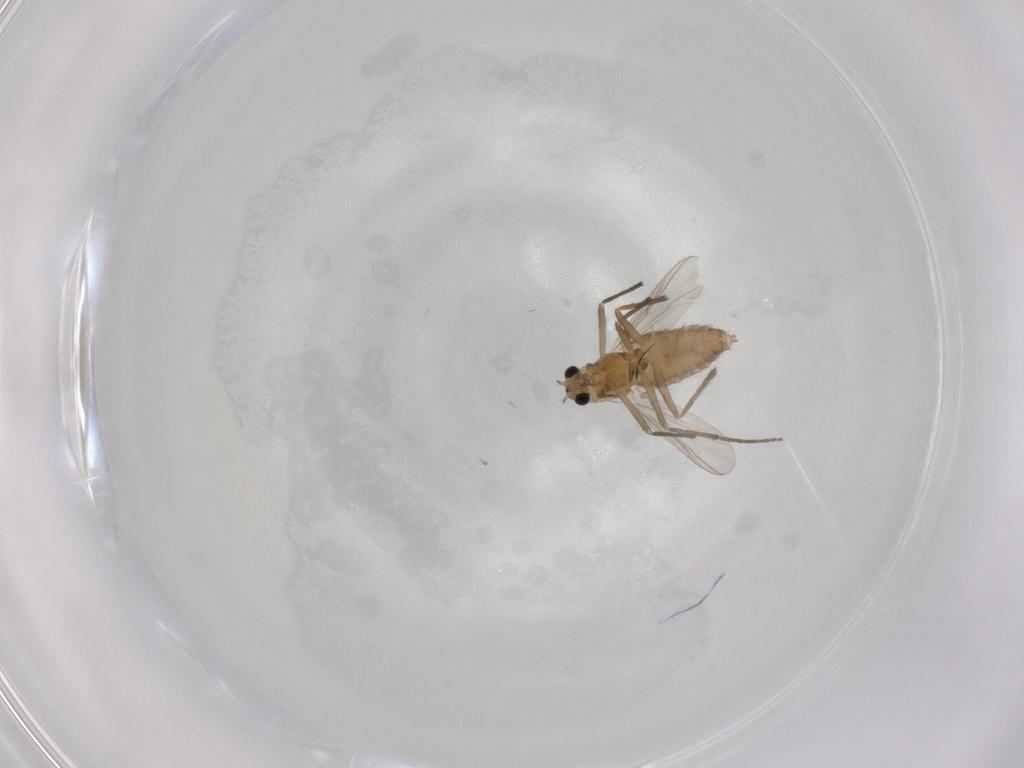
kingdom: Animalia
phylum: Arthropoda
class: Insecta
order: Diptera
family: Chironomidae
